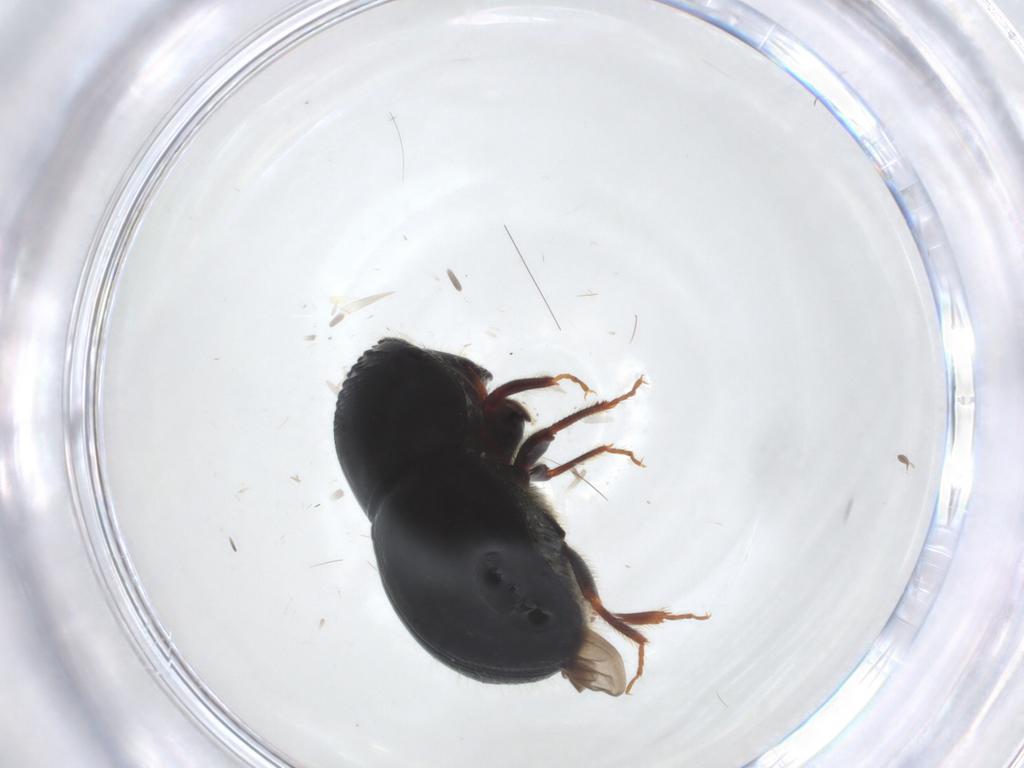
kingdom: Animalia
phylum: Arthropoda
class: Insecta
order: Coleoptera
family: Curculionidae
